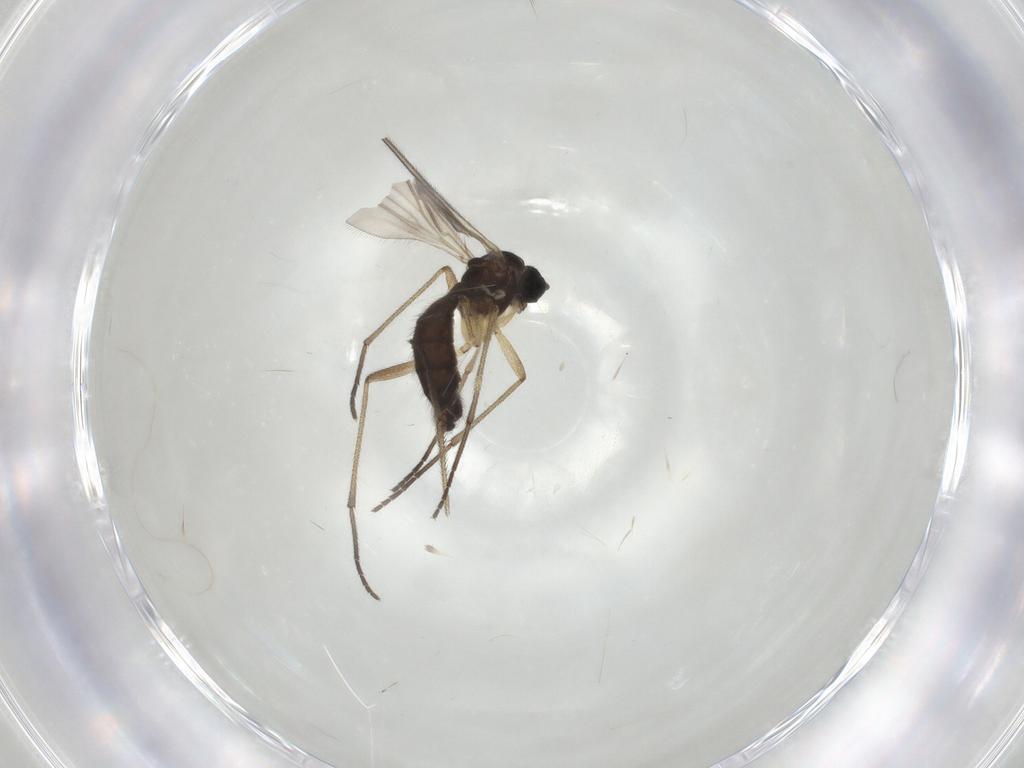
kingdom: Animalia
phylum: Arthropoda
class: Insecta
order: Diptera
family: Sciaridae
